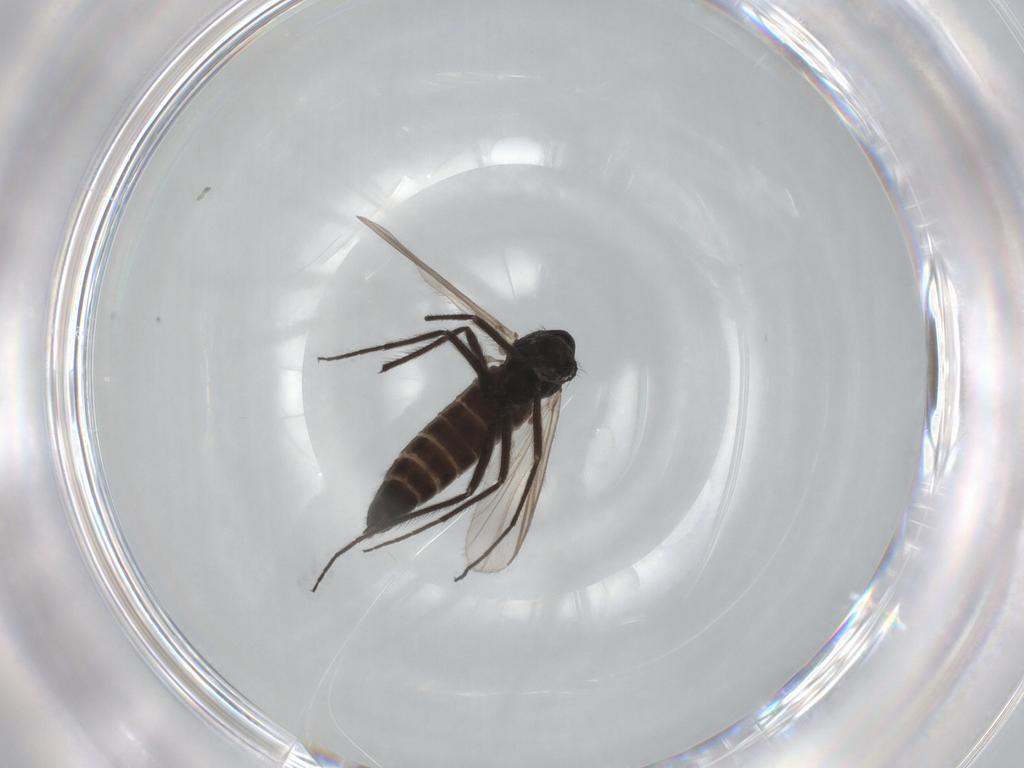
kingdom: Animalia
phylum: Arthropoda
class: Insecta
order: Diptera
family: Chironomidae
